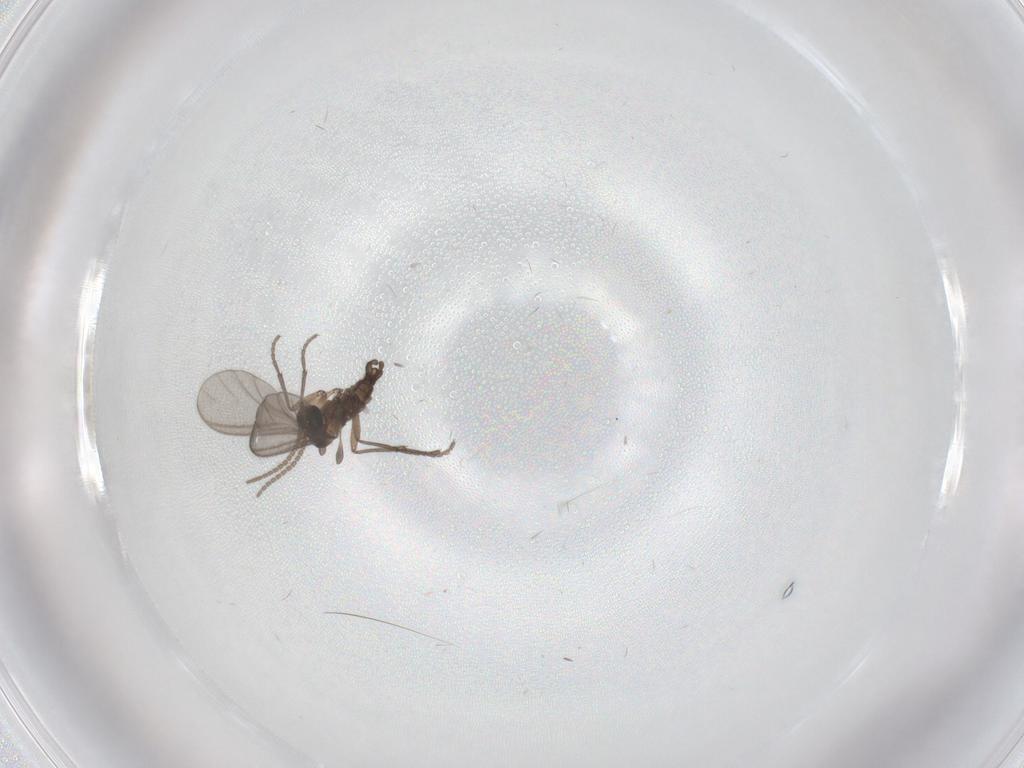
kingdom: Animalia
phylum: Arthropoda
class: Insecta
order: Diptera
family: Sciaridae
